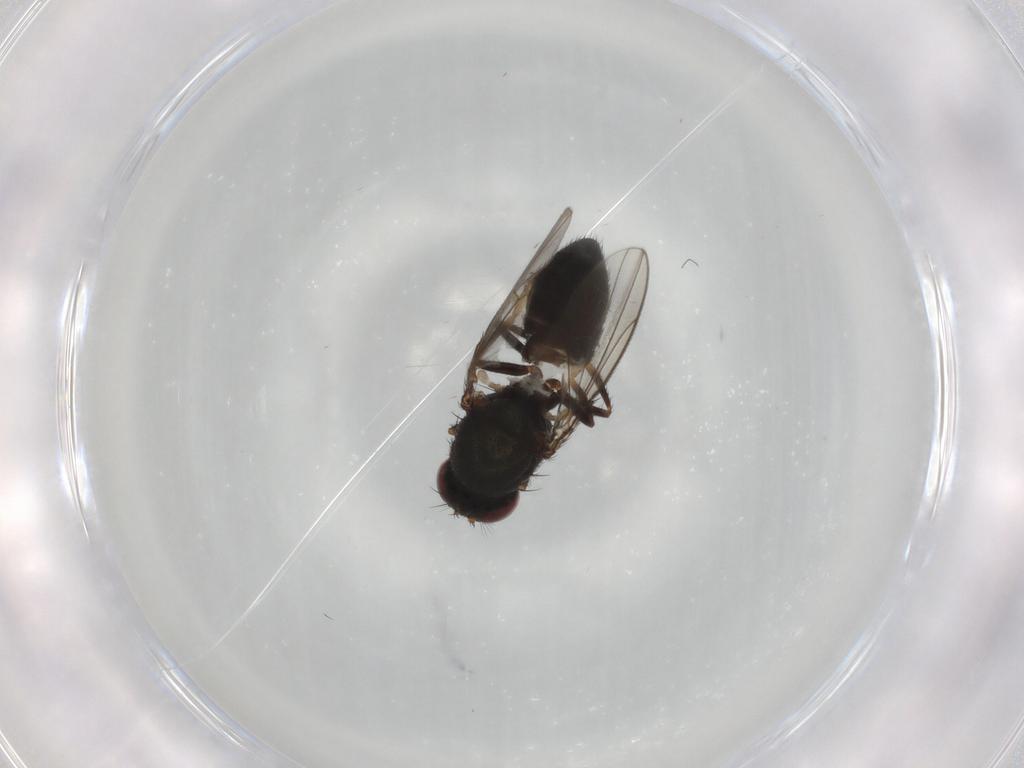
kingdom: Animalia
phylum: Arthropoda
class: Insecta
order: Diptera
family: Ephydridae
